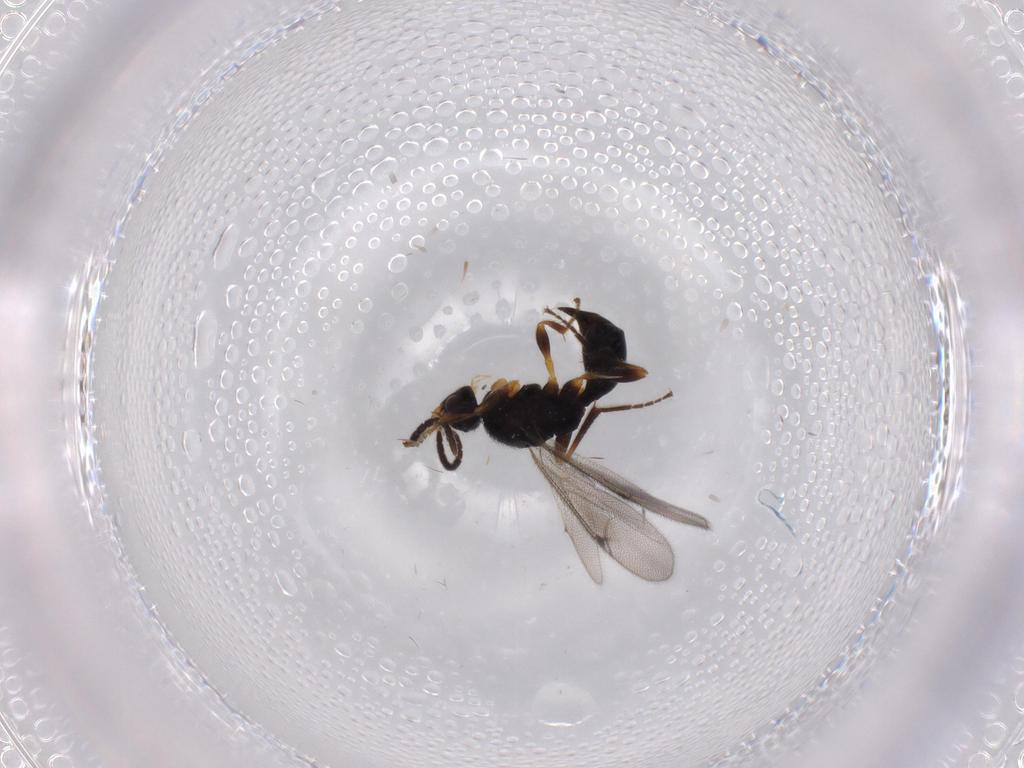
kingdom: Animalia
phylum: Arthropoda
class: Insecta
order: Hymenoptera
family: Proctotrupidae
